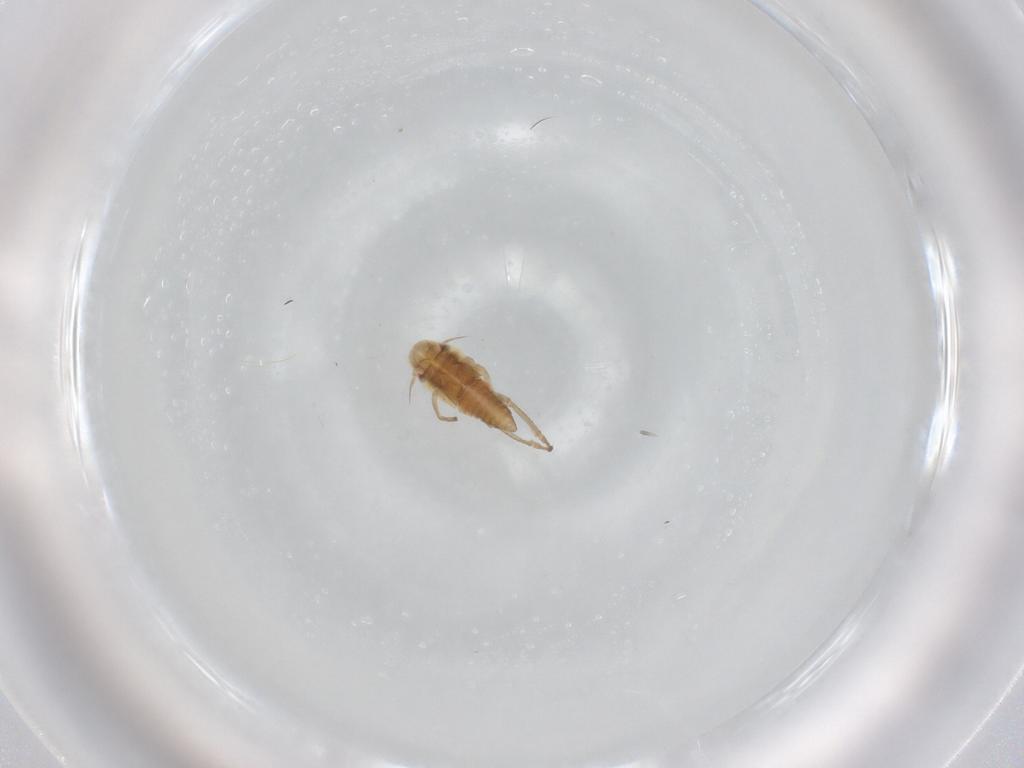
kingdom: Animalia
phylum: Arthropoda
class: Insecta
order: Hemiptera
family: Cicadellidae
